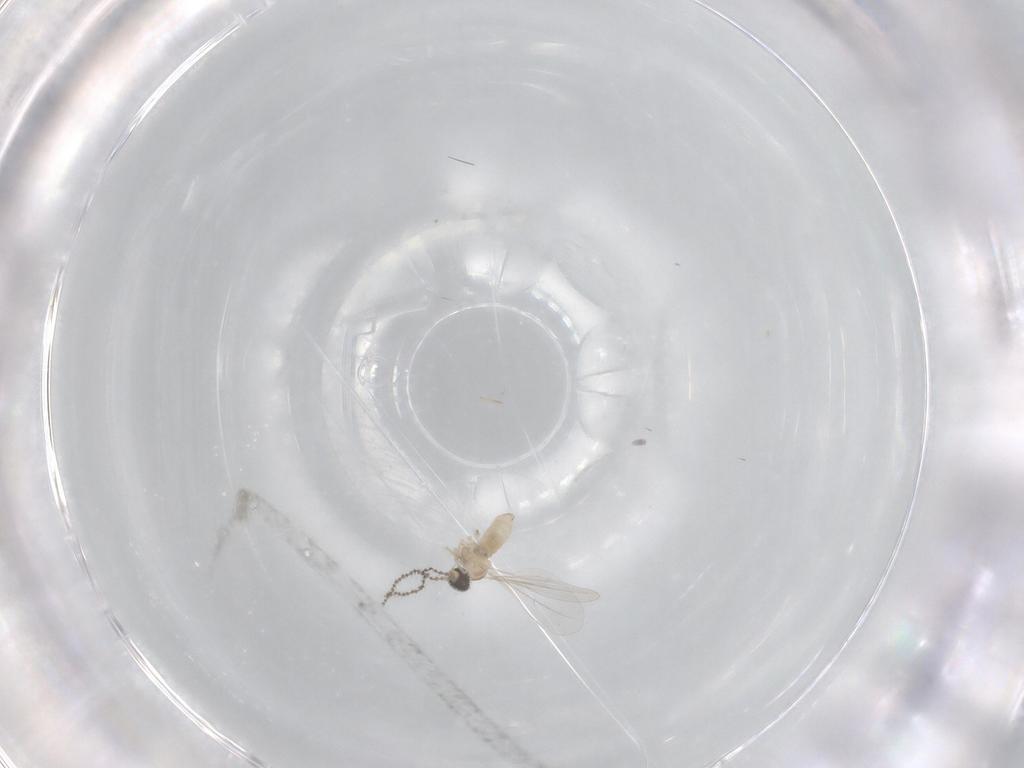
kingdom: Animalia
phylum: Arthropoda
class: Insecta
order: Diptera
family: Cecidomyiidae
